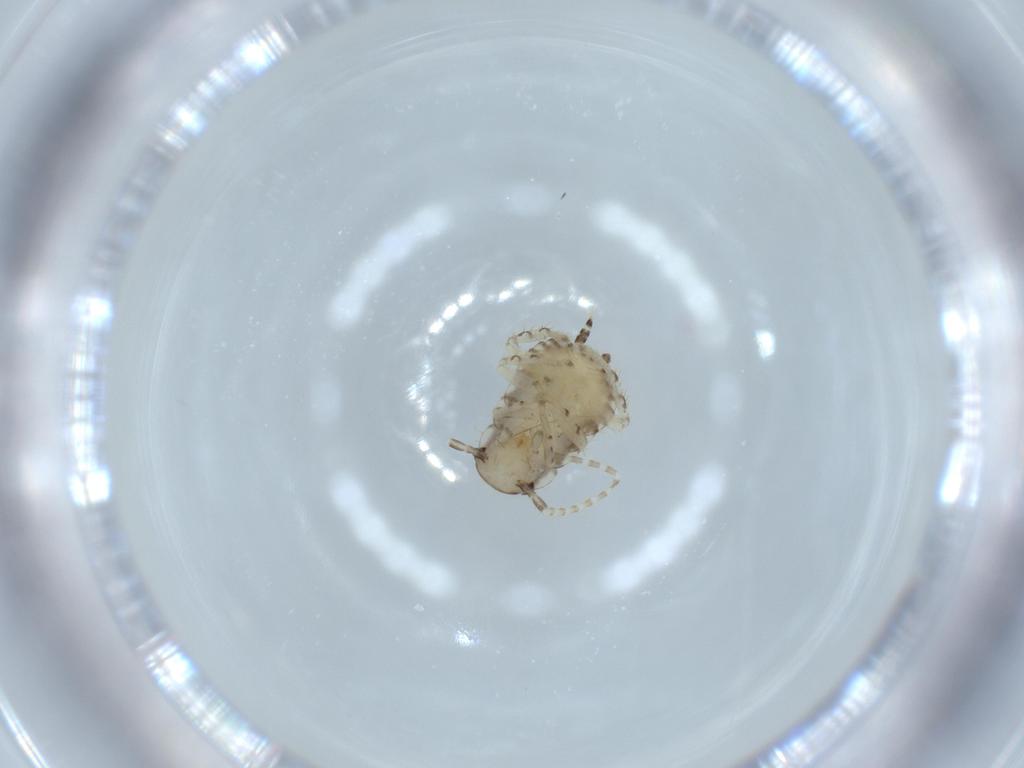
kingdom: Animalia
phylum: Arthropoda
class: Insecta
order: Blattodea
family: Ectobiidae
